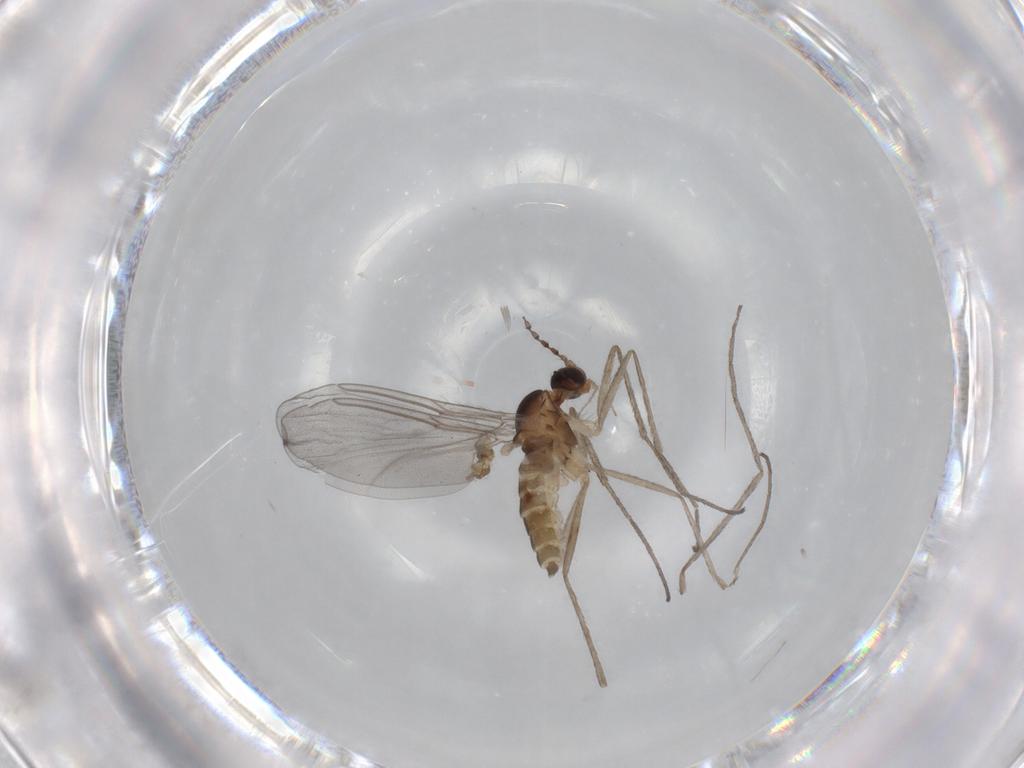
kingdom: Animalia
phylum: Arthropoda
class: Insecta
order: Diptera
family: Cecidomyiidae
